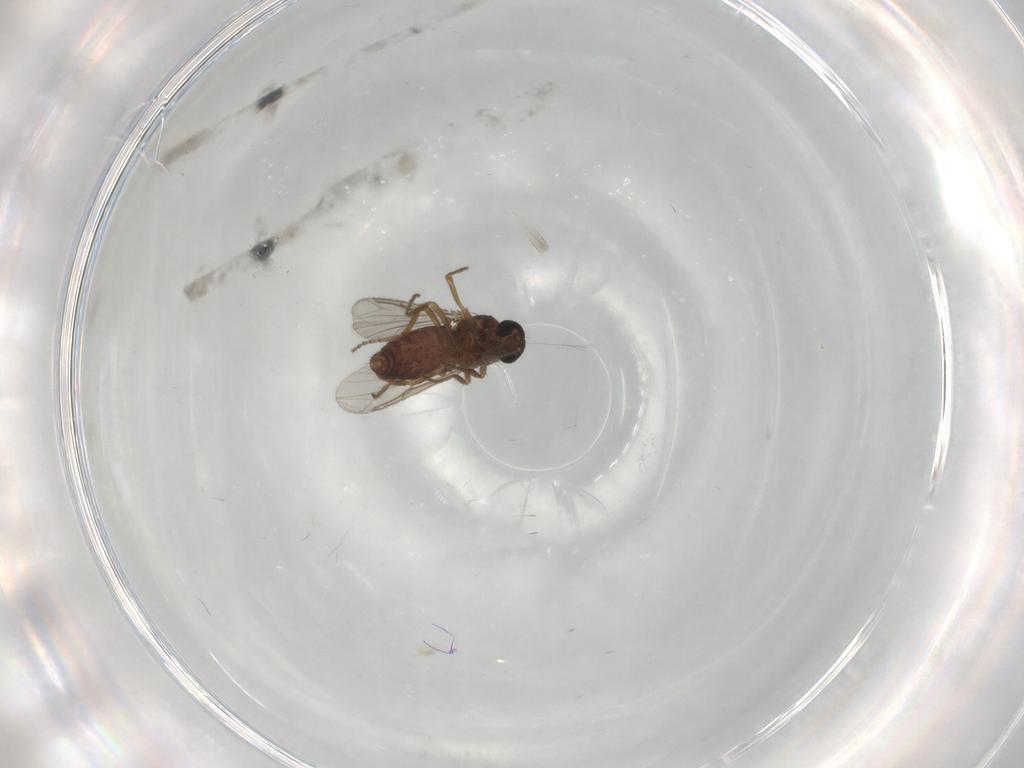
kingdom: Animalia
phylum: Arthropoda
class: Insecta
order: Diptera
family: Ceratopogonidae
